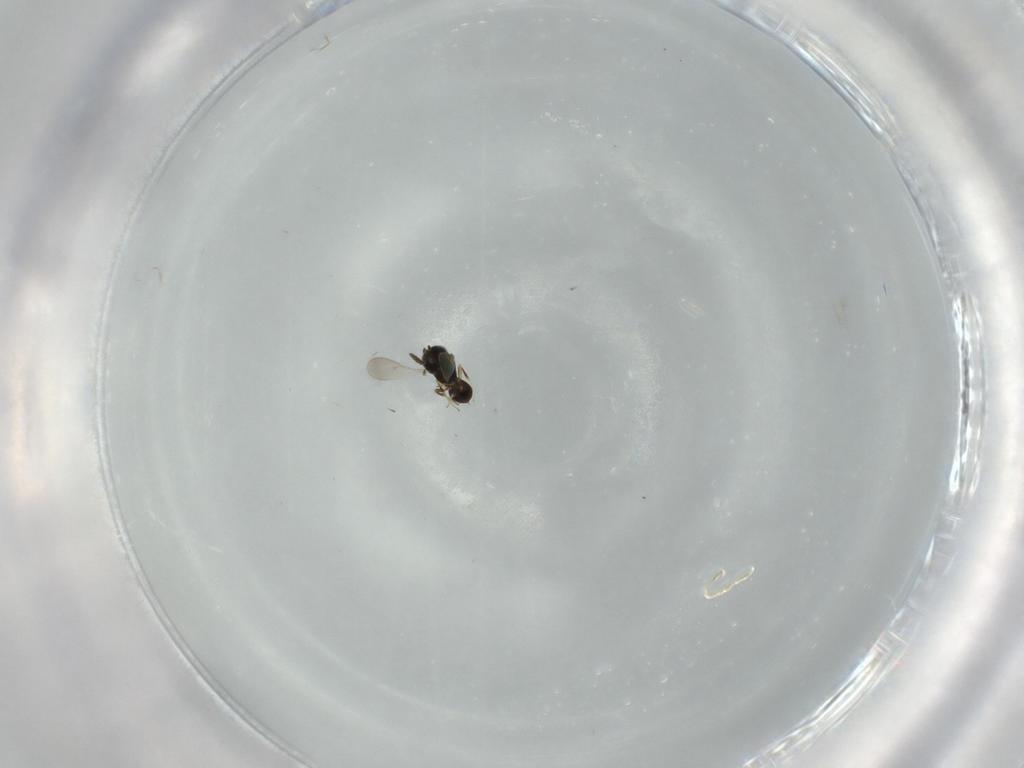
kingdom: Animalia
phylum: Arthropoda
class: Insecta
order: Hymenoptera
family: Scelionidae
